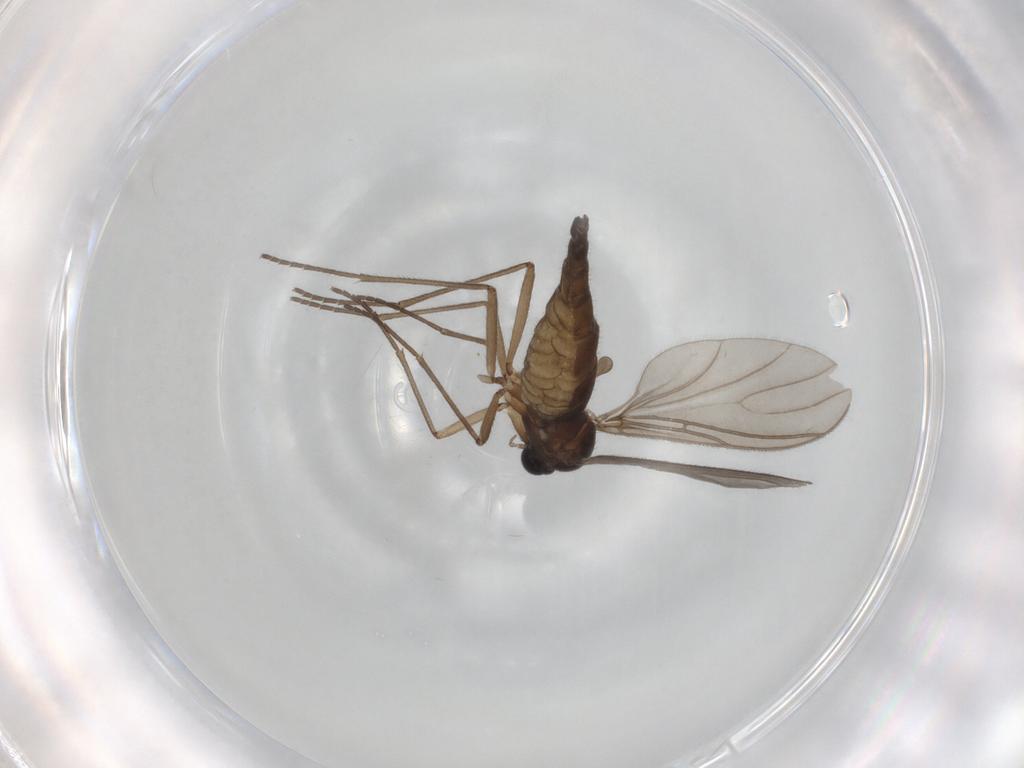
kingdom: Animalia
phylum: Arthropoda
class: Insecta
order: Diptera
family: Sciaridae
